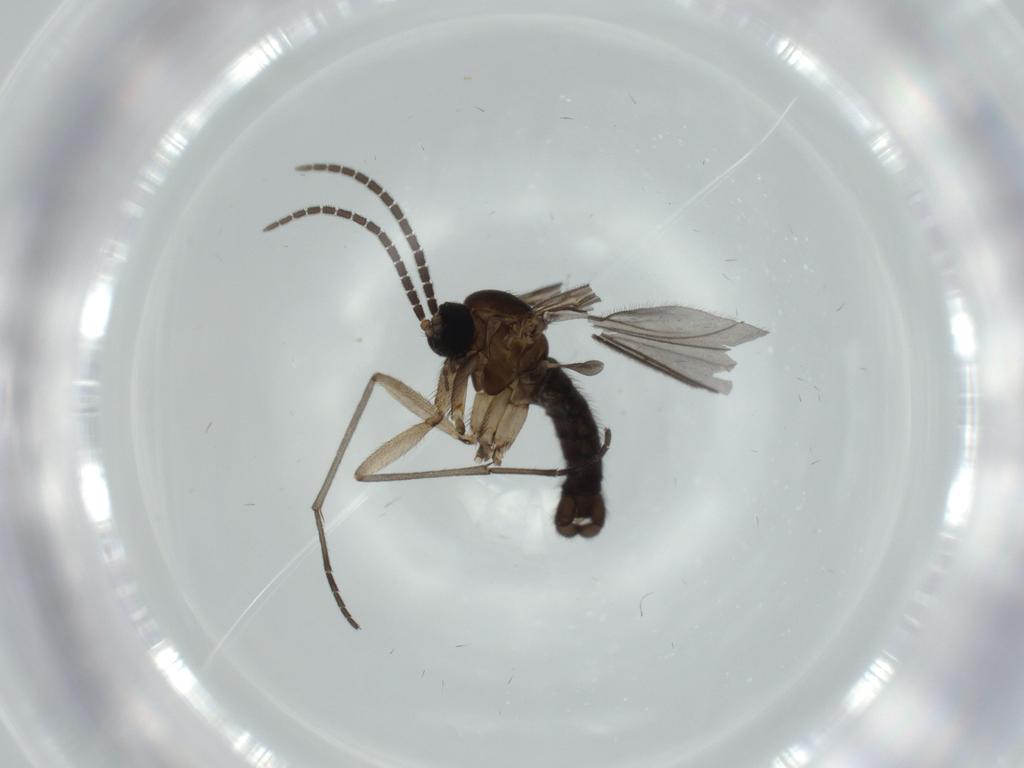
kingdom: Animalia
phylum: Arthropoda
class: Insecta
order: Diptera
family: Sciaridae
